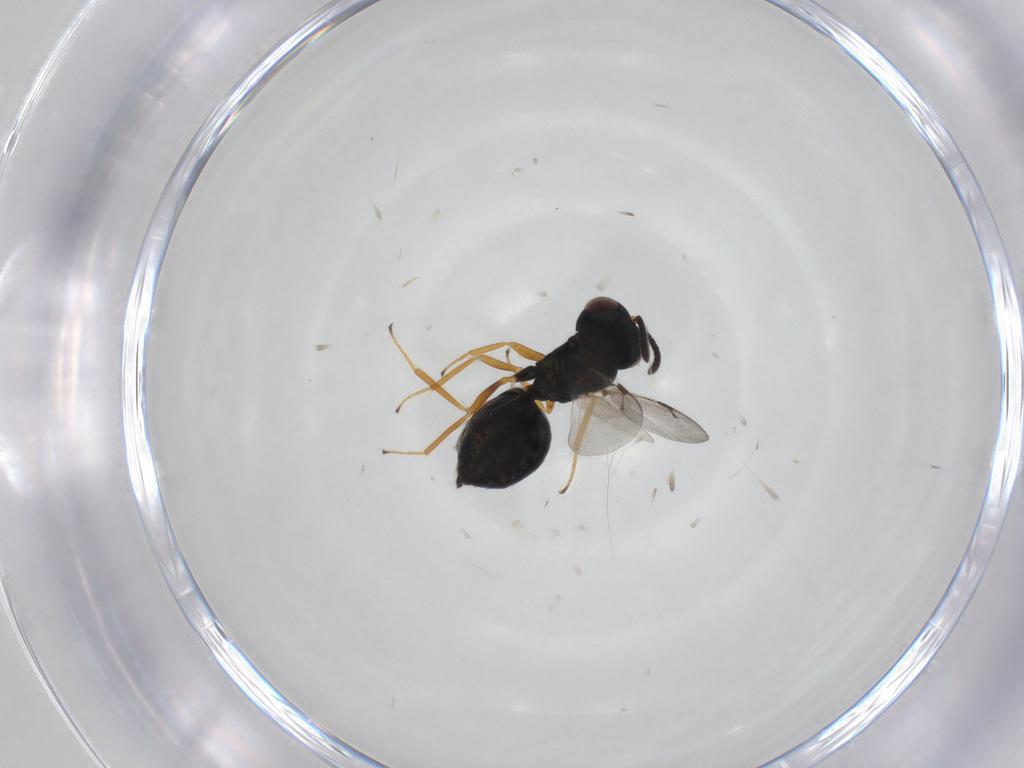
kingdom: Animalia
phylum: Arthropoda
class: Insecta
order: Hymenoptera
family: Pteromalidae
